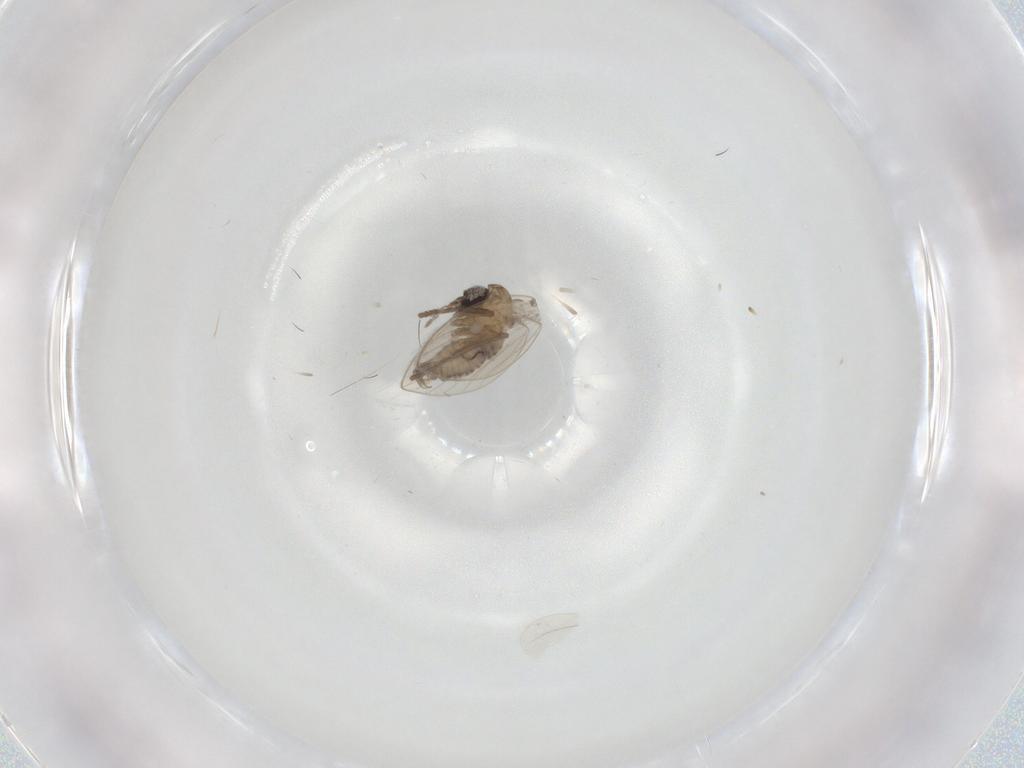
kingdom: Animalia
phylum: Arthropoda
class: Insecta
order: Diptera
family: Psychodidae
